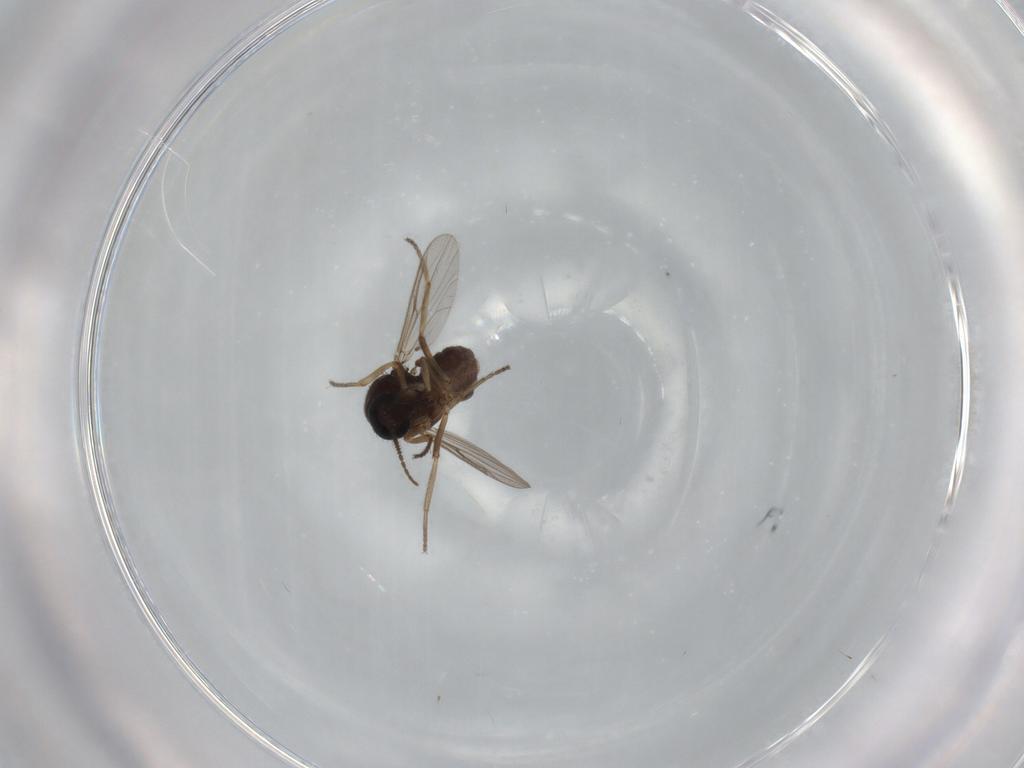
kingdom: Animalia
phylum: Arthropoda
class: Insecta
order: Diptera
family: Ceratopogonidae
